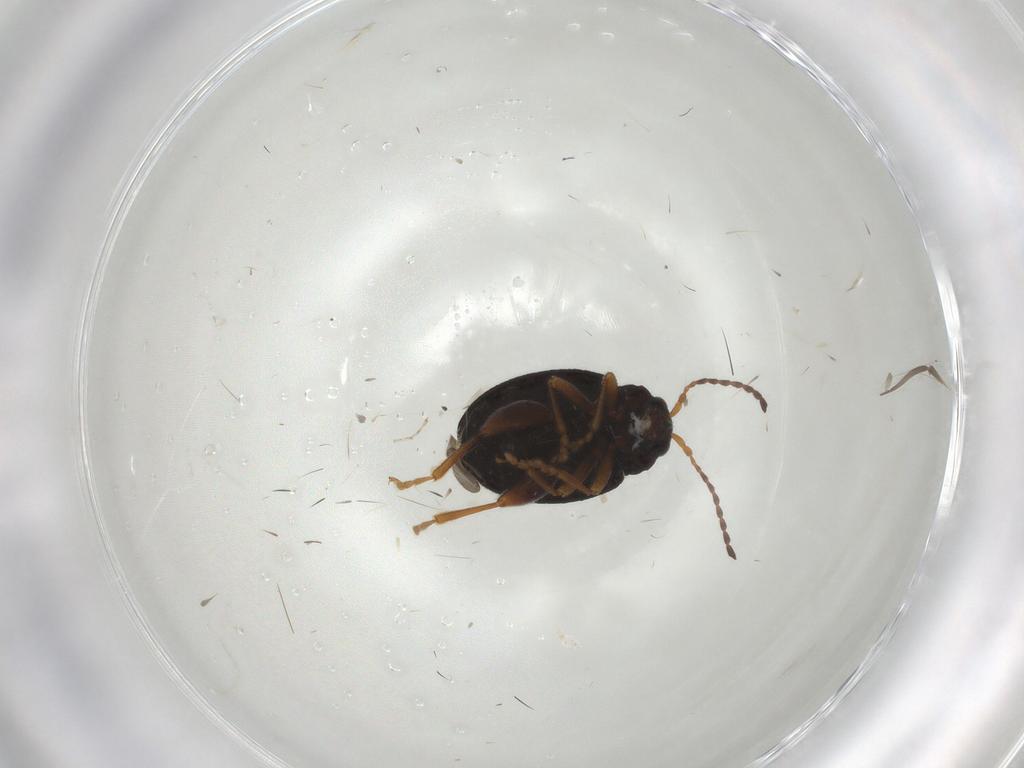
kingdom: Animalia
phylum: Arthropoda
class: Insecta
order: Coleoptera
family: Chrysomelidae
